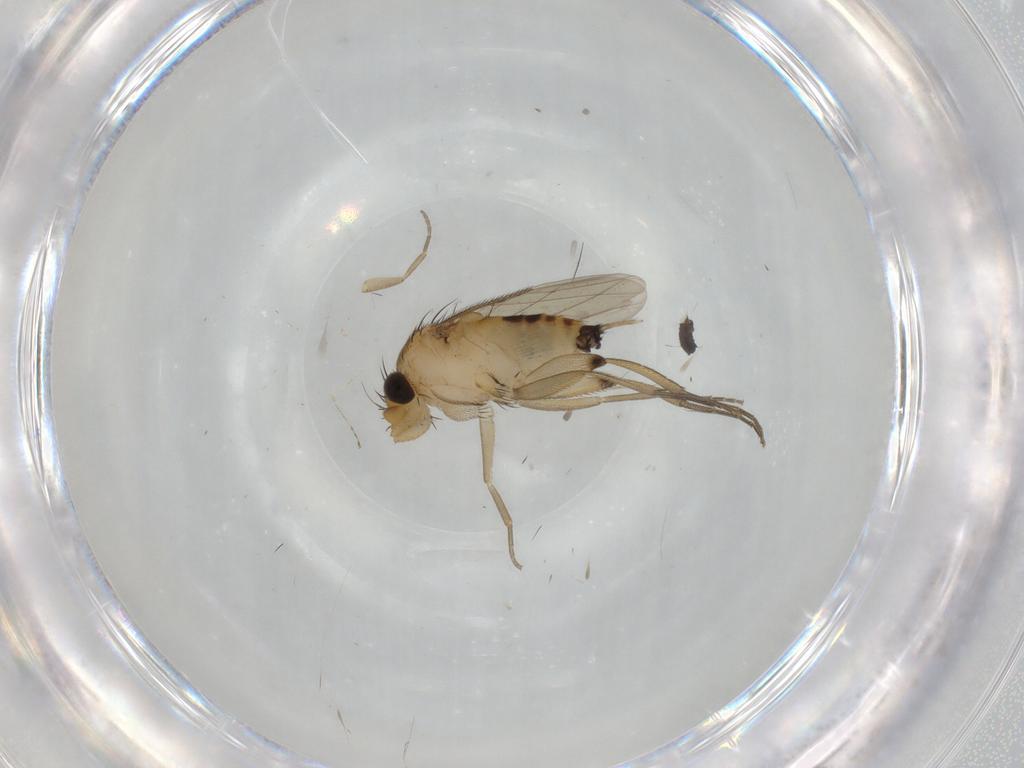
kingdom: Animalia
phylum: Arthropoda
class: Insecta
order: Diptera
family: Phoridae
